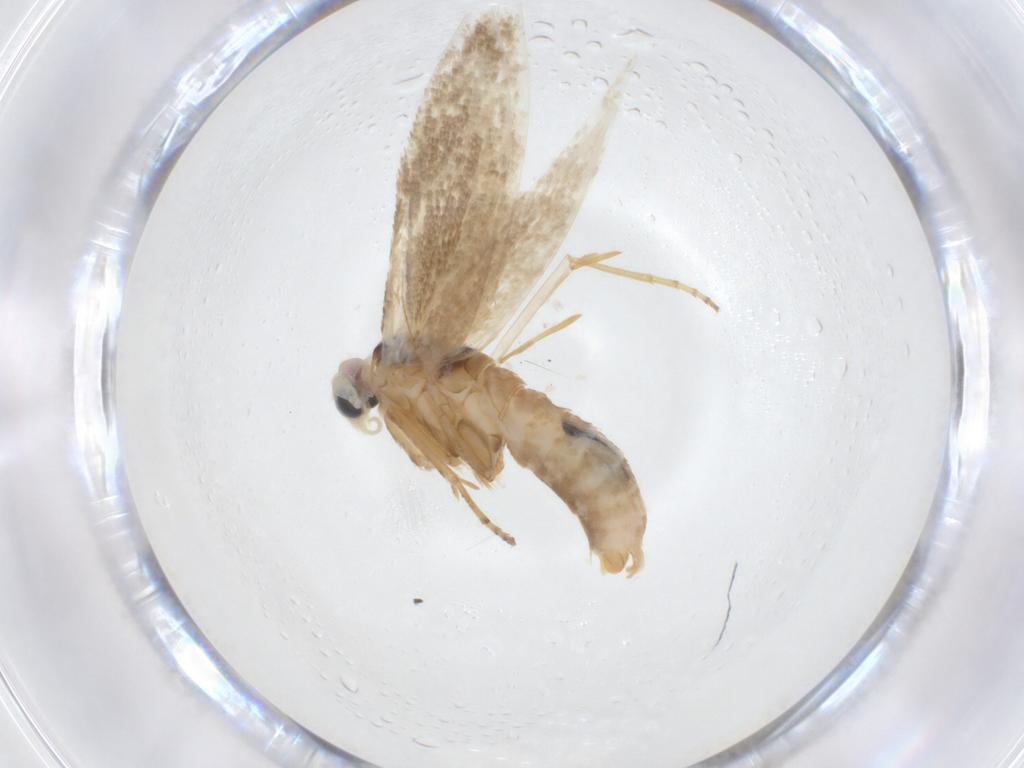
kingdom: Animalia
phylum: Arthropoda
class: Insecta
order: Lepidoptera
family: Bucculatricidae
